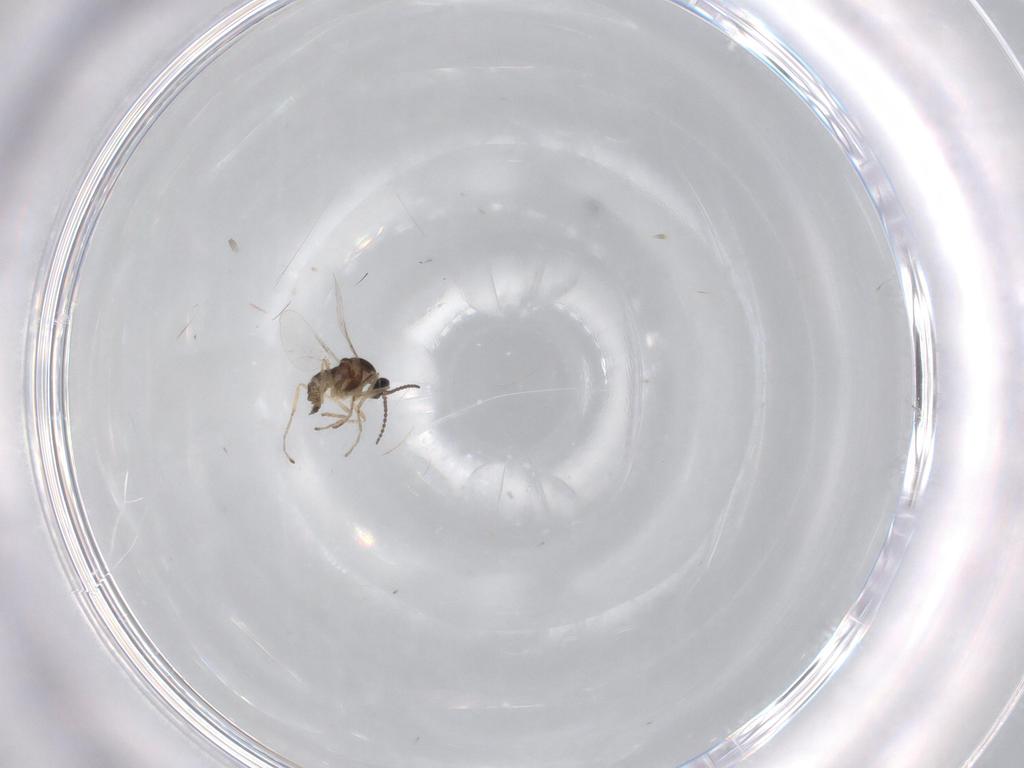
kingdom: Animalia
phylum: Arthropoda
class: Insecta
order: Diptera
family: Cecidomyiidae
